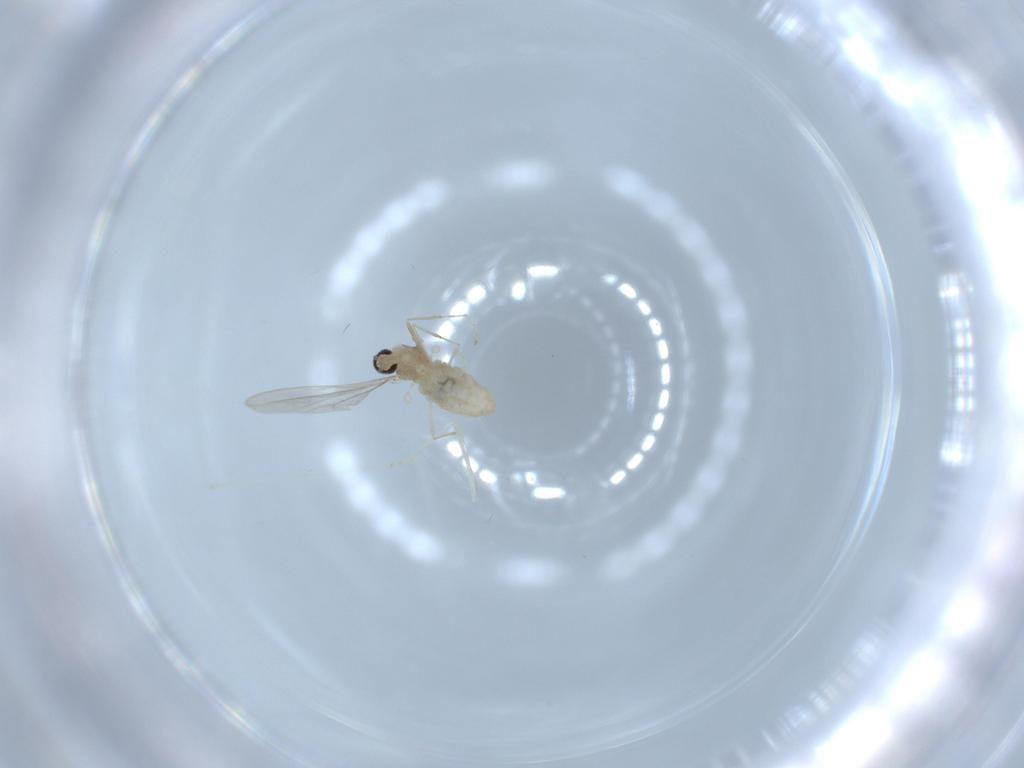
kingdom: Animalia
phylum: Arthropoda
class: Insecta
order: Diptera
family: Cecidomyiidae
